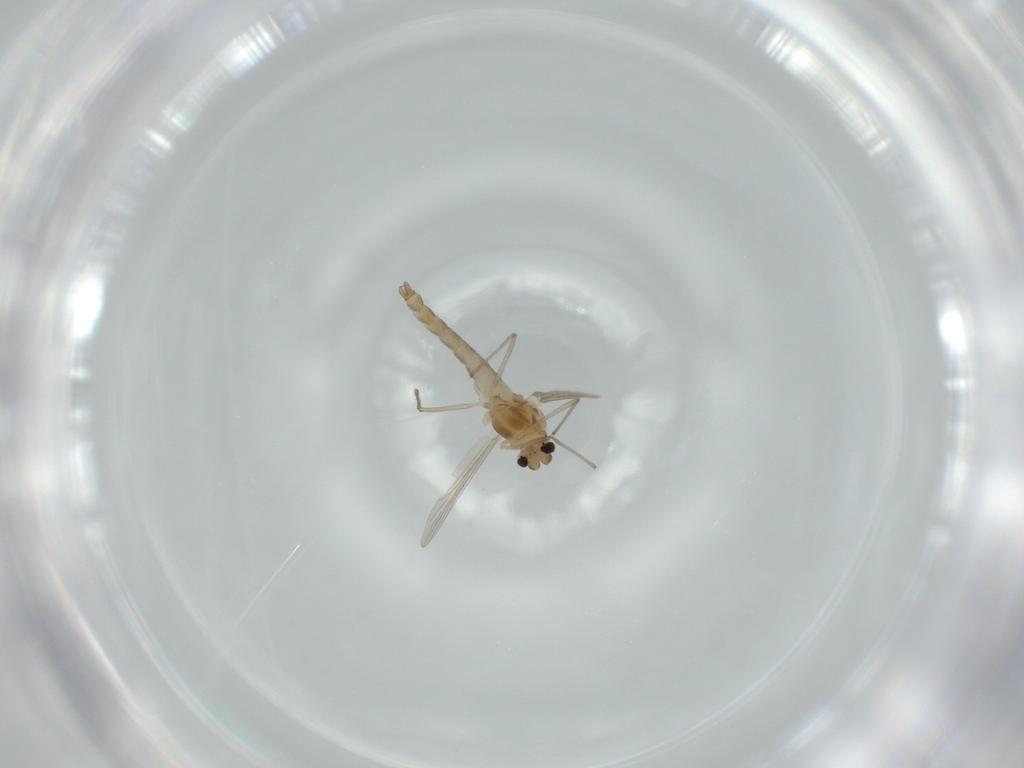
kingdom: Animalia
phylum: Arthropoda
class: Insecta
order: Diptera
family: Chironomidae
